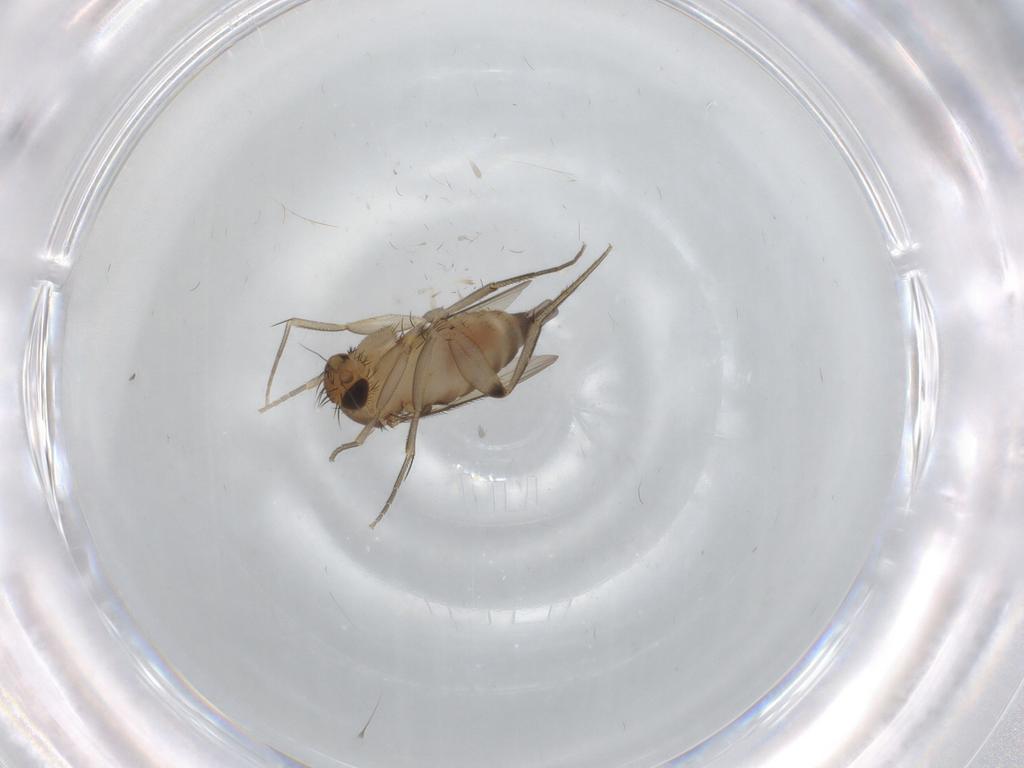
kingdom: Animalia
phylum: Arthropoda
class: Insecta
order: Diptera
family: Phoridae
